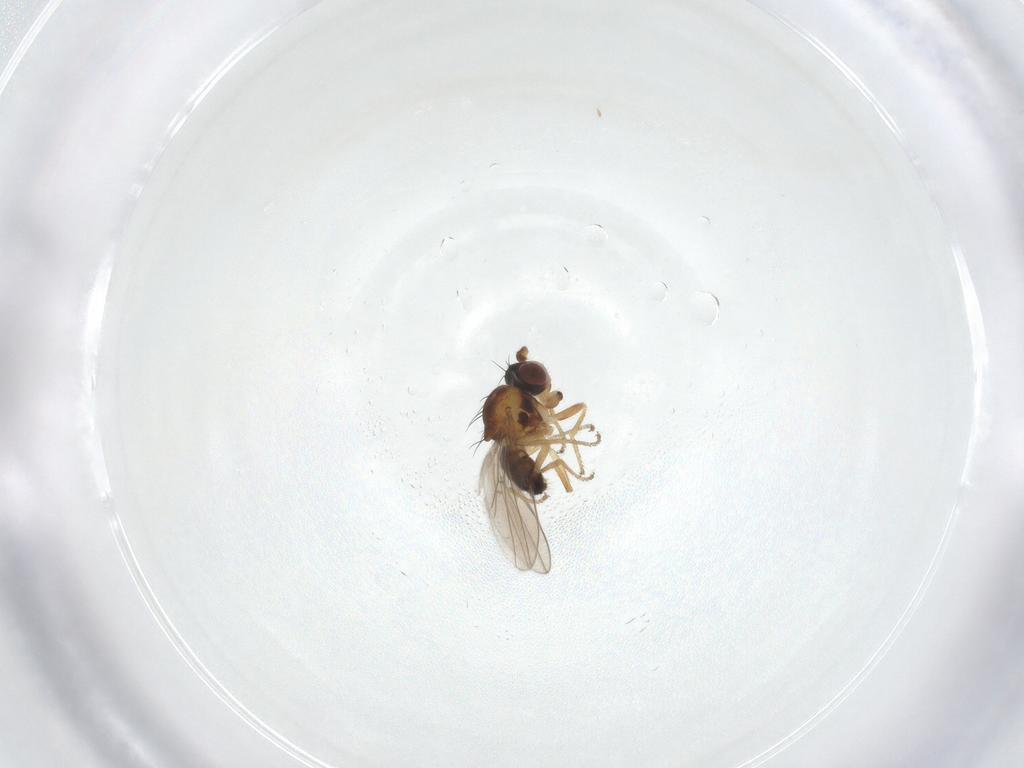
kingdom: Animalia
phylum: Arthropoda
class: Insecta
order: Diptera
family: Ephydridae
